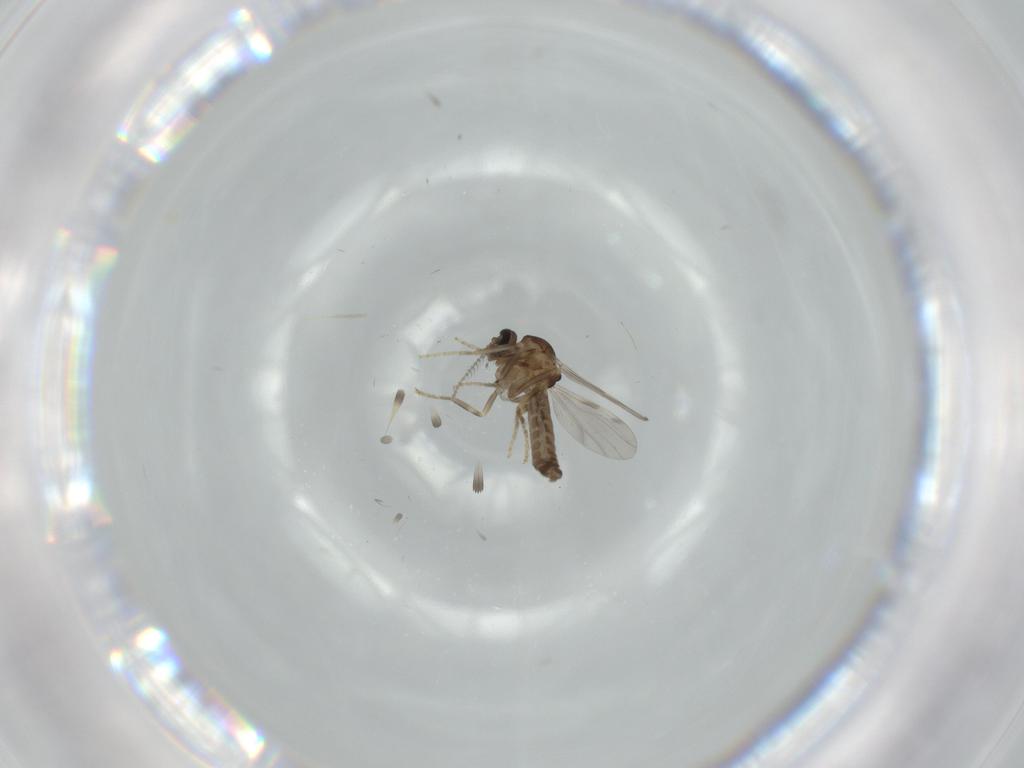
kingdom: Animalia
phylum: Arthropoda
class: Insecta
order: Diptera
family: Ceratopogonidae
